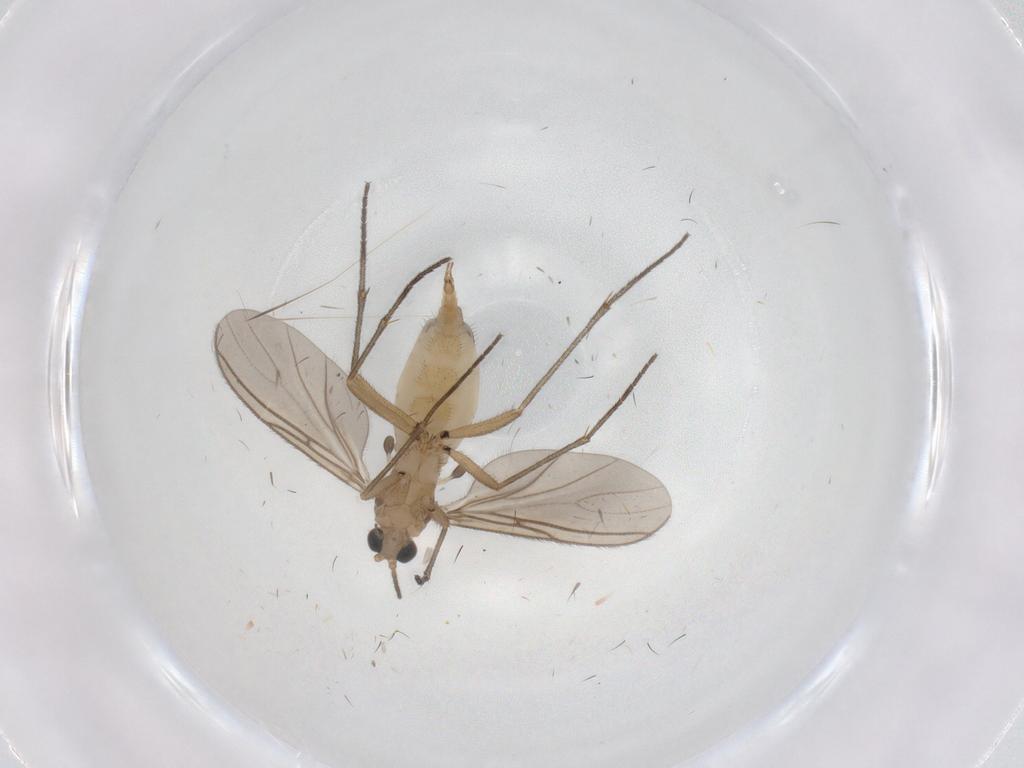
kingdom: Animalia
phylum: Arthropoda
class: Insecta
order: Diptera
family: Sciaridae
